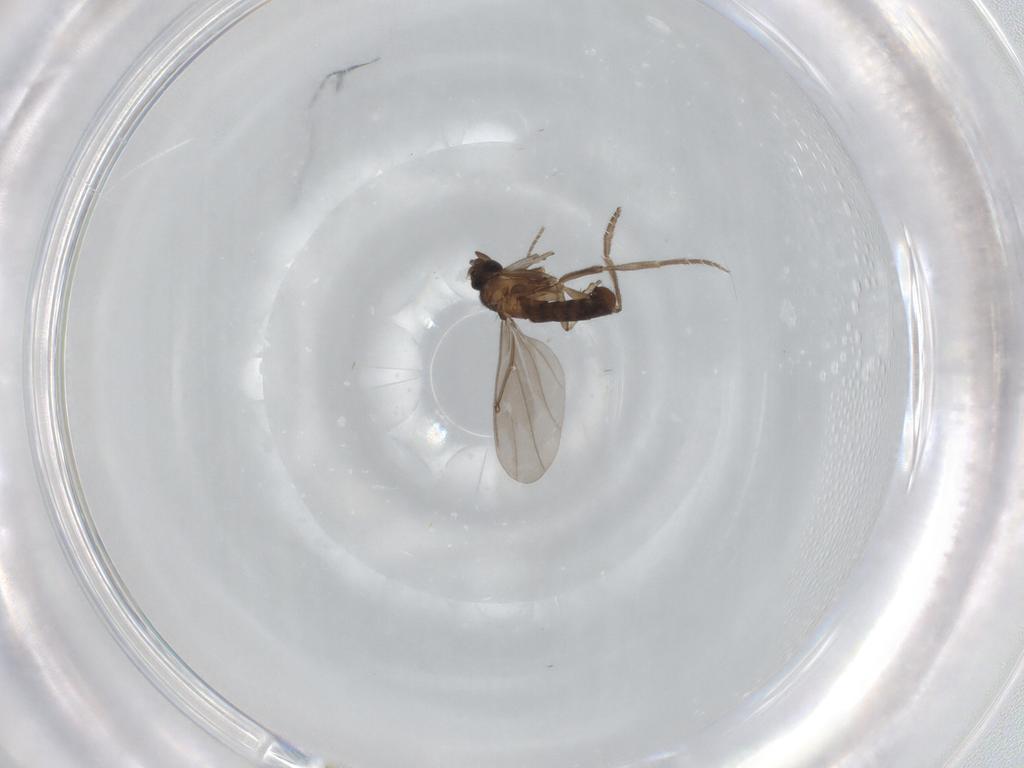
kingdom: Animalia
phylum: Arthropoda
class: Insecta
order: Diptera
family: Phoridae
